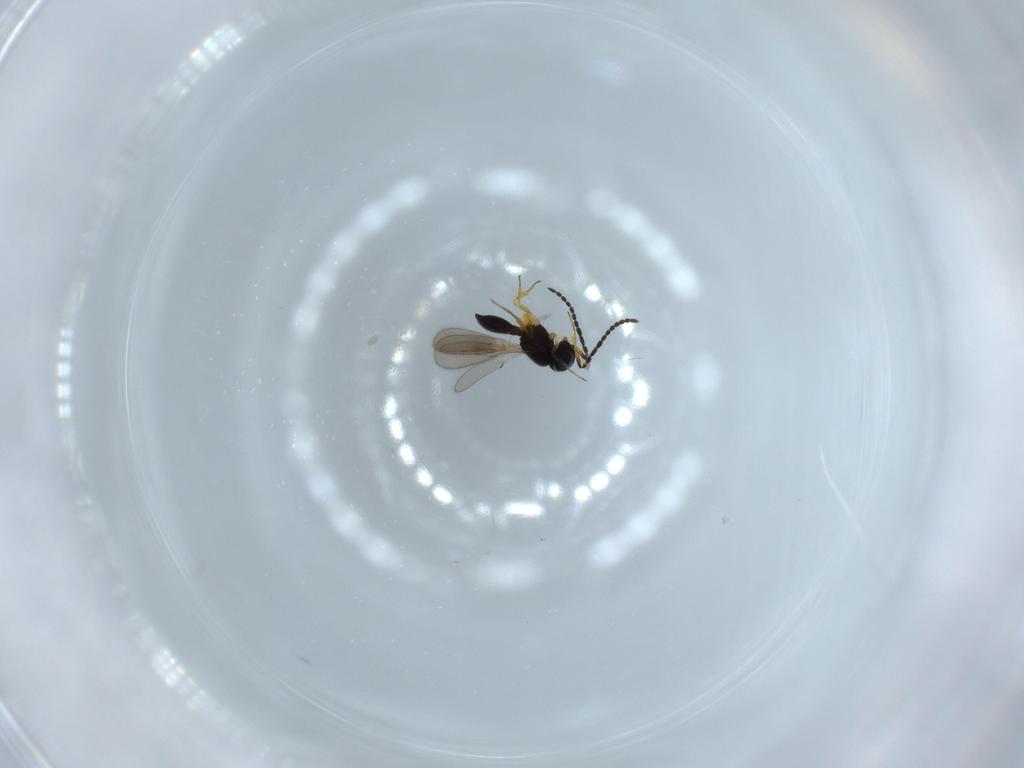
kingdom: Animalia
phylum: Arthropoda
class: Insecta
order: Hymenoptera
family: Scelionidae
